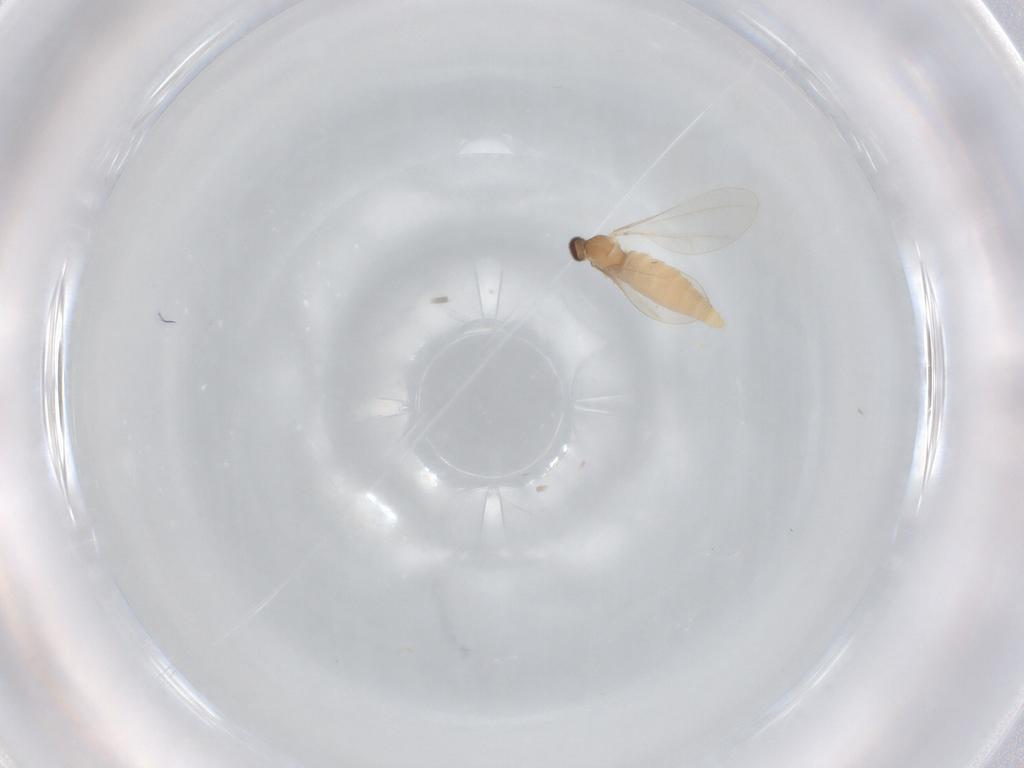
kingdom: Animalia
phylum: Arthropoda
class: Insecta
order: Diptera
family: Cecidomyiidae
